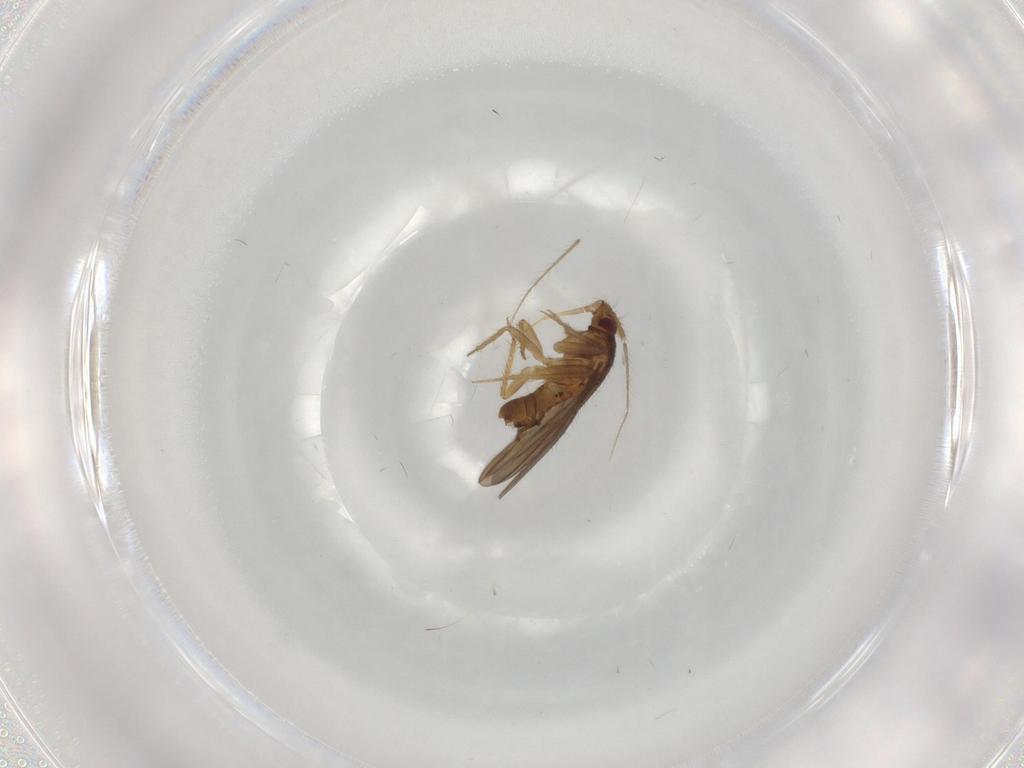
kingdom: Animalia
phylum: Arthropoda
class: Insecta
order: Hemiptera
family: Ceratocombidae
